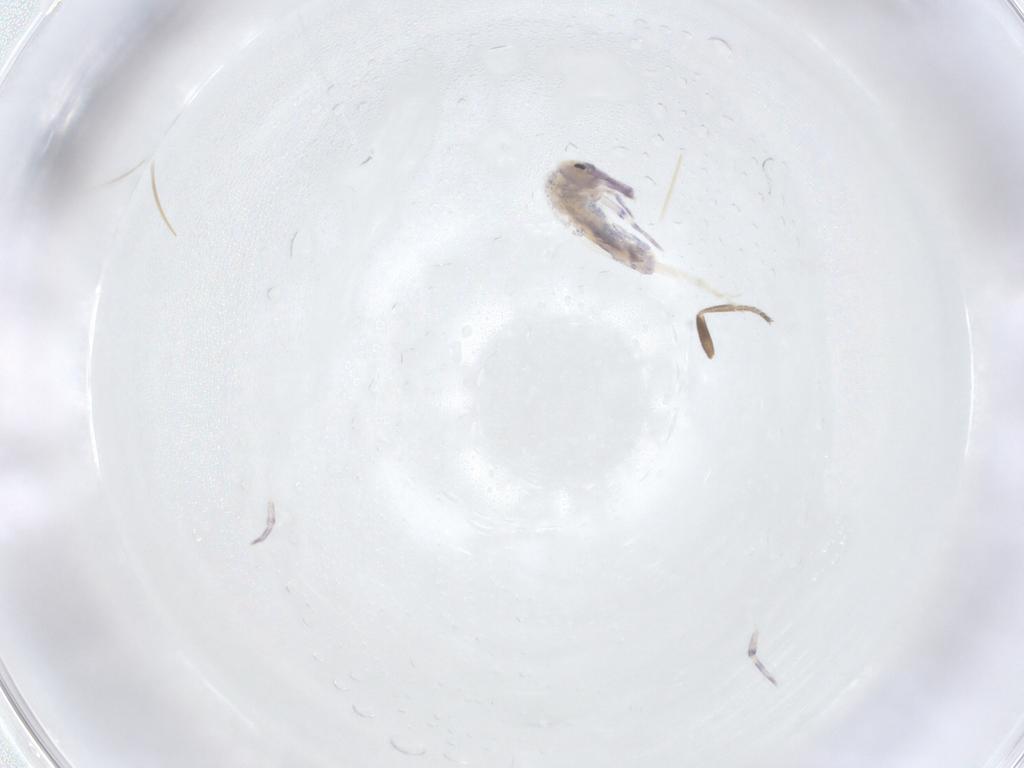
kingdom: Animalia
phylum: Arthropoda
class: Collembola
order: Entomobryomorpha
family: Entomobryidae
